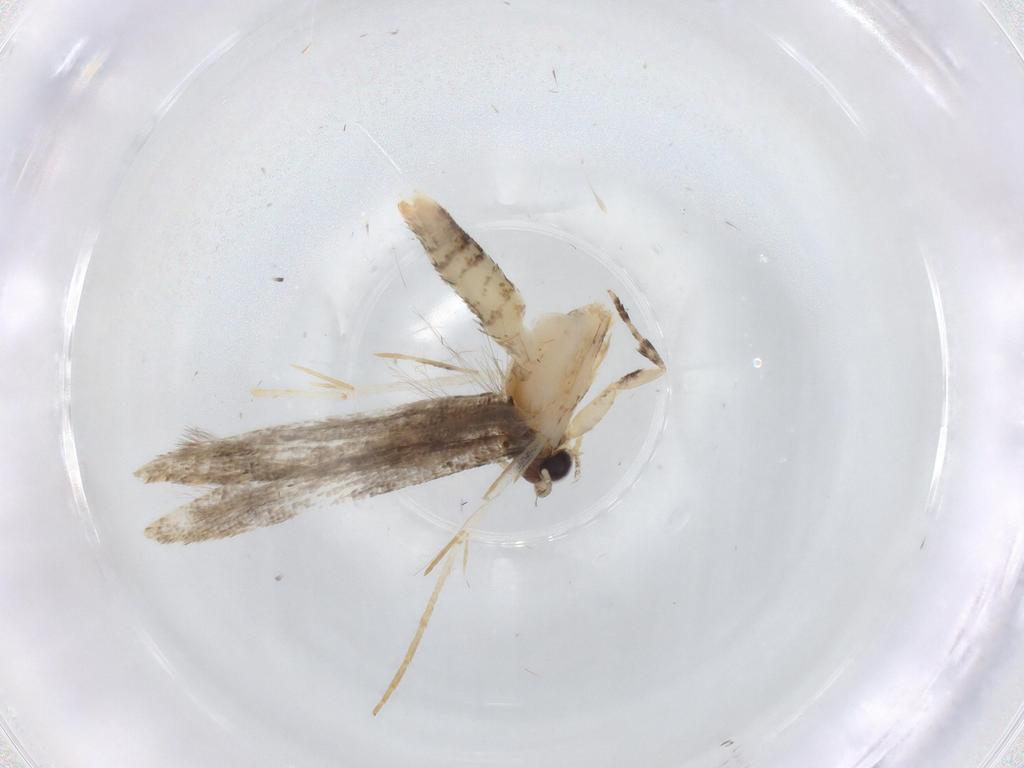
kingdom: Animalia
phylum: Arthropoda
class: Insecta
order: Lepidoptera
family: Tineidae
